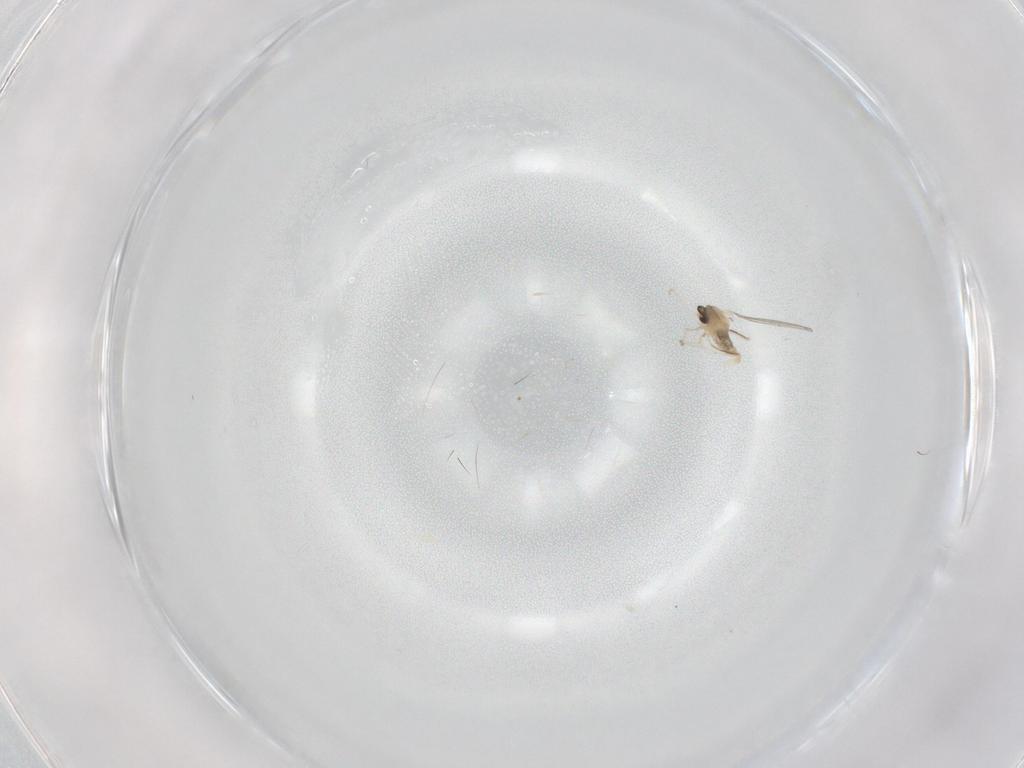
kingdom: Animalia
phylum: Arthropoda
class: Insecta
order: Diptera
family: Cecidomyiidae
